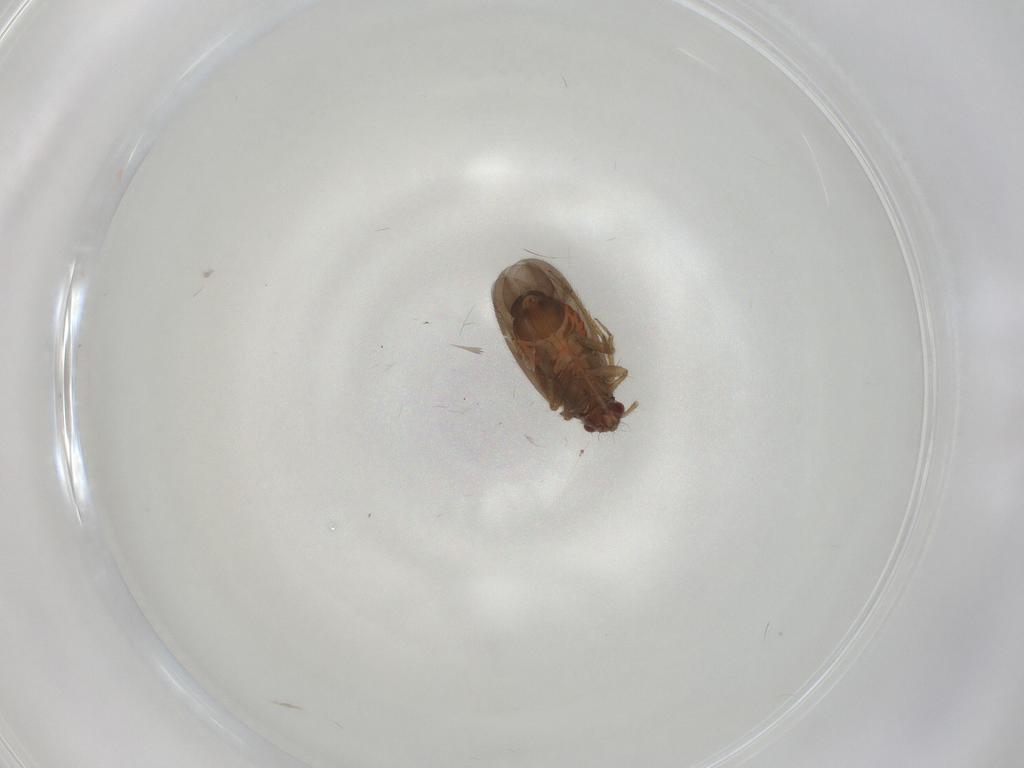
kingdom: Animalia
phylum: Arthropoda
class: Insecta
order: Hemiptera
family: Ceratocombidae
